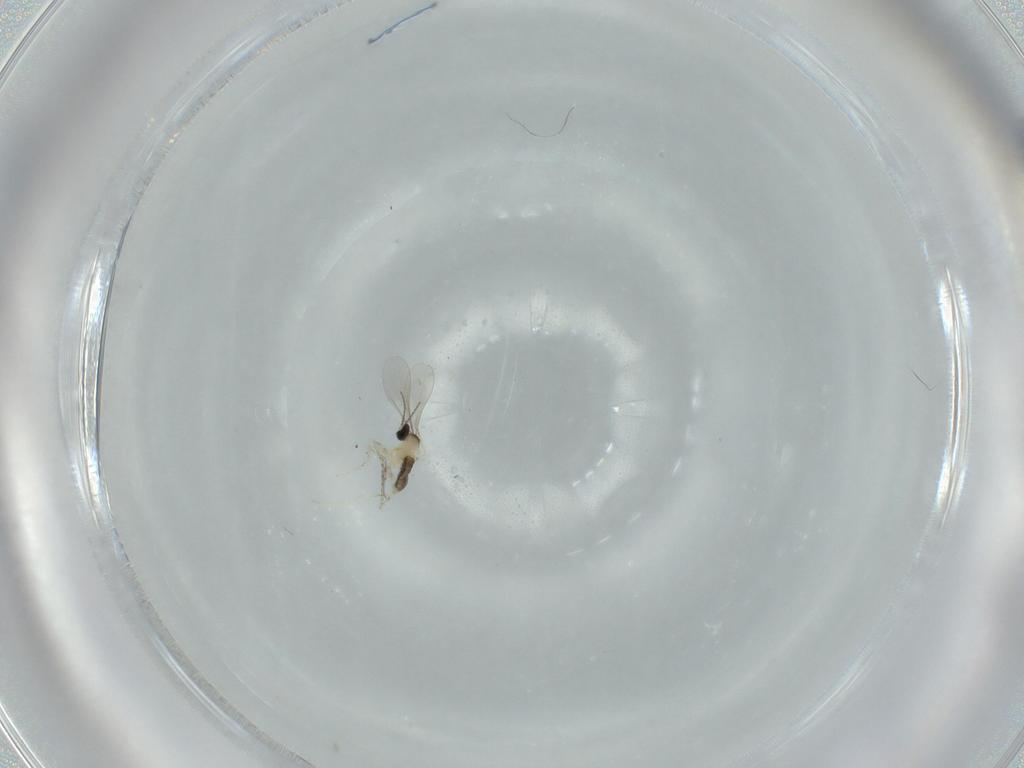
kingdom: Animalia
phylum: Arthropoda
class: Insecta
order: Diptera
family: Cecidomyiidae
